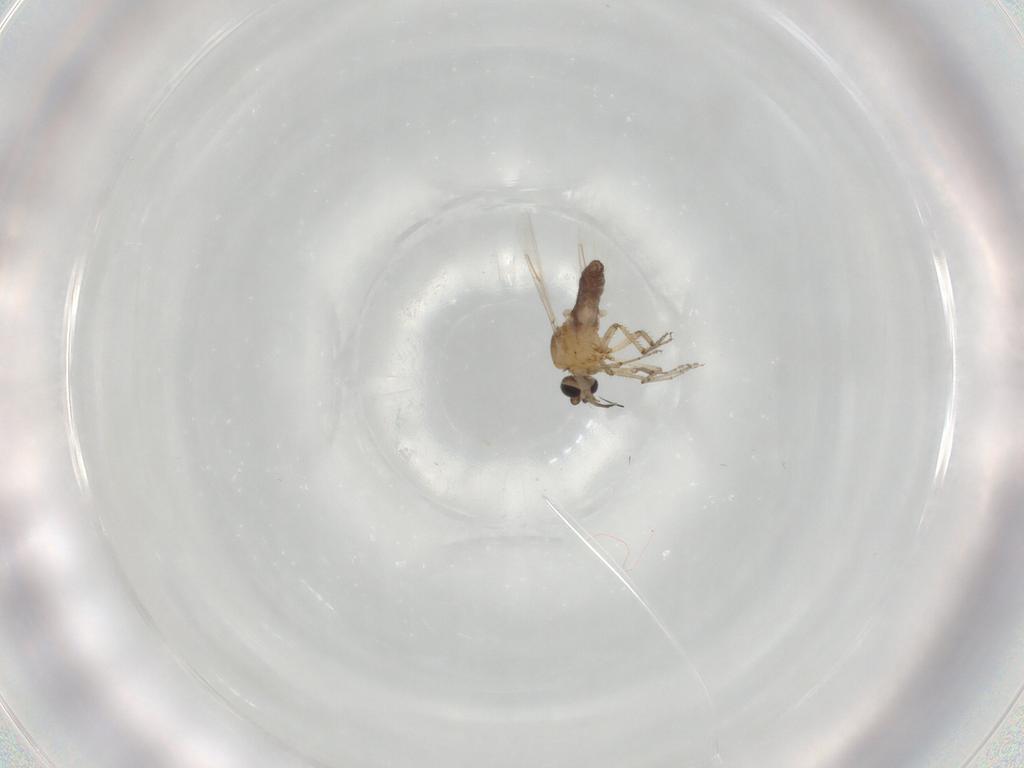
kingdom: Animalia
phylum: Arthropoda
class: Insecta
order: Diptera
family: Ceratopogonidae
